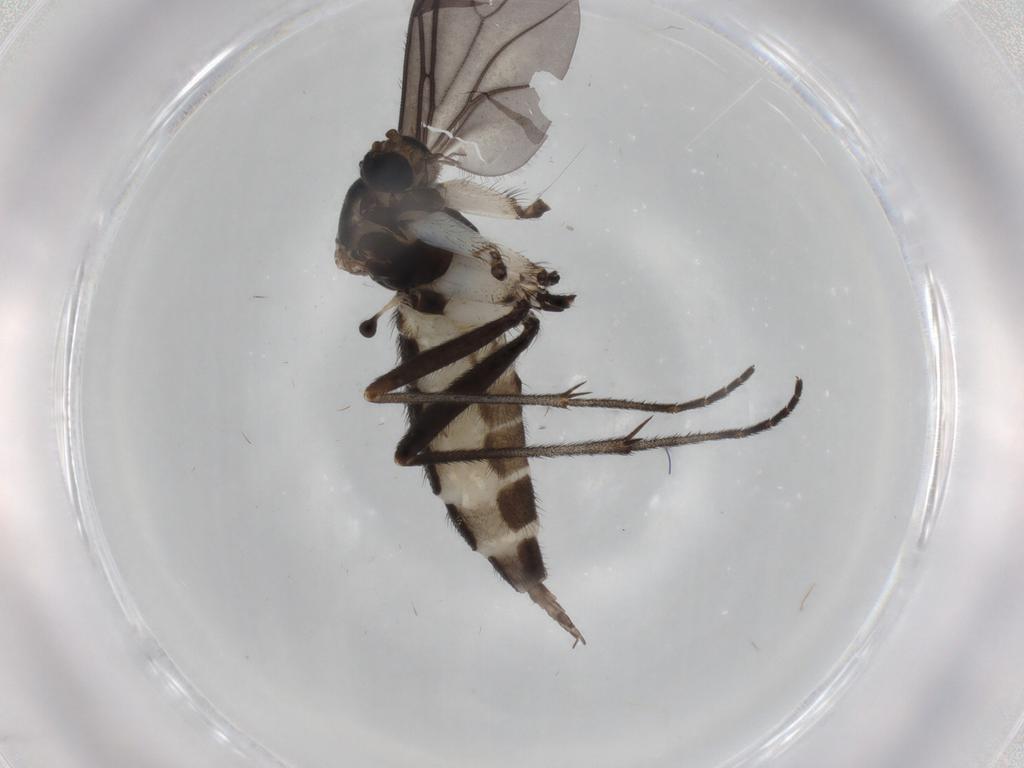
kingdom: Animalia
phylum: Arthropoda
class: Insecta
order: Diptera
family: Sciaridae
